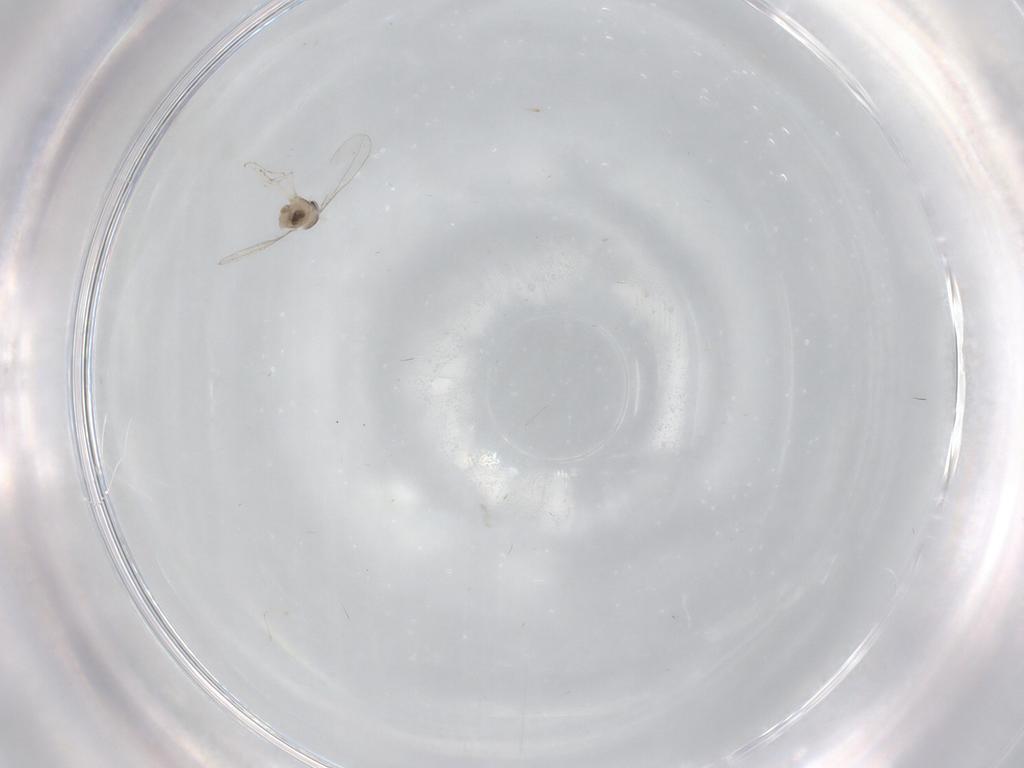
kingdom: Animalia
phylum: Arthropoda
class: Insecta
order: Diptera
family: Cecidomyiidae
